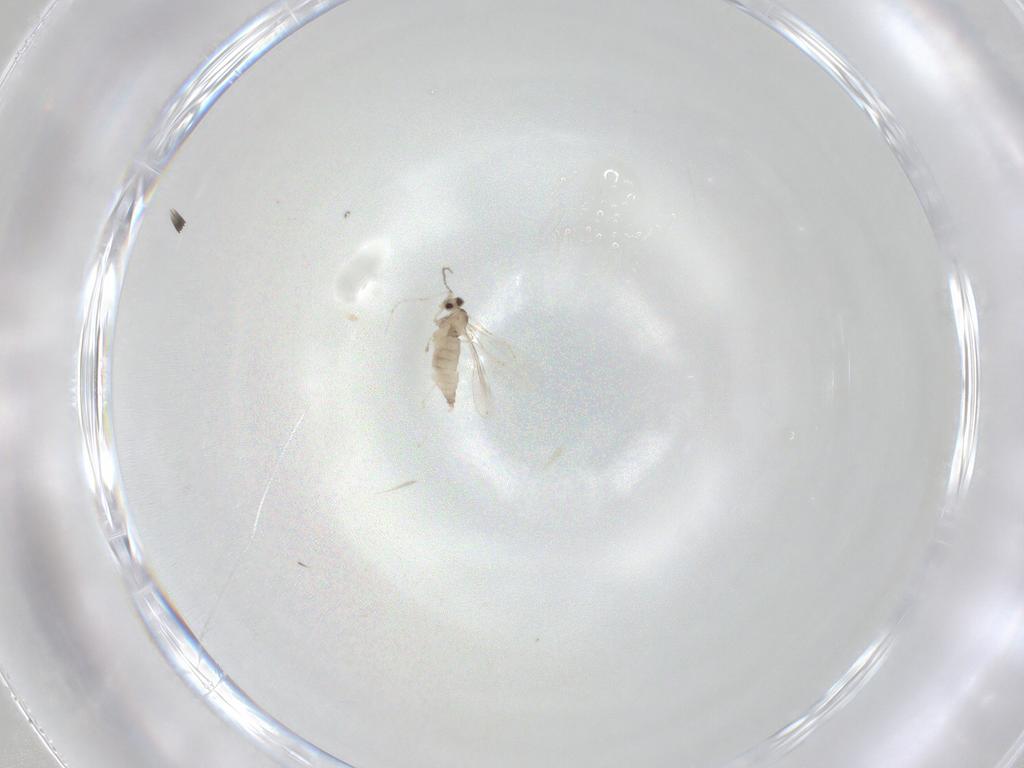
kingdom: Animalia
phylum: Arthropoda
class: Insecta
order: Diptera
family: Cecidomyiidae
